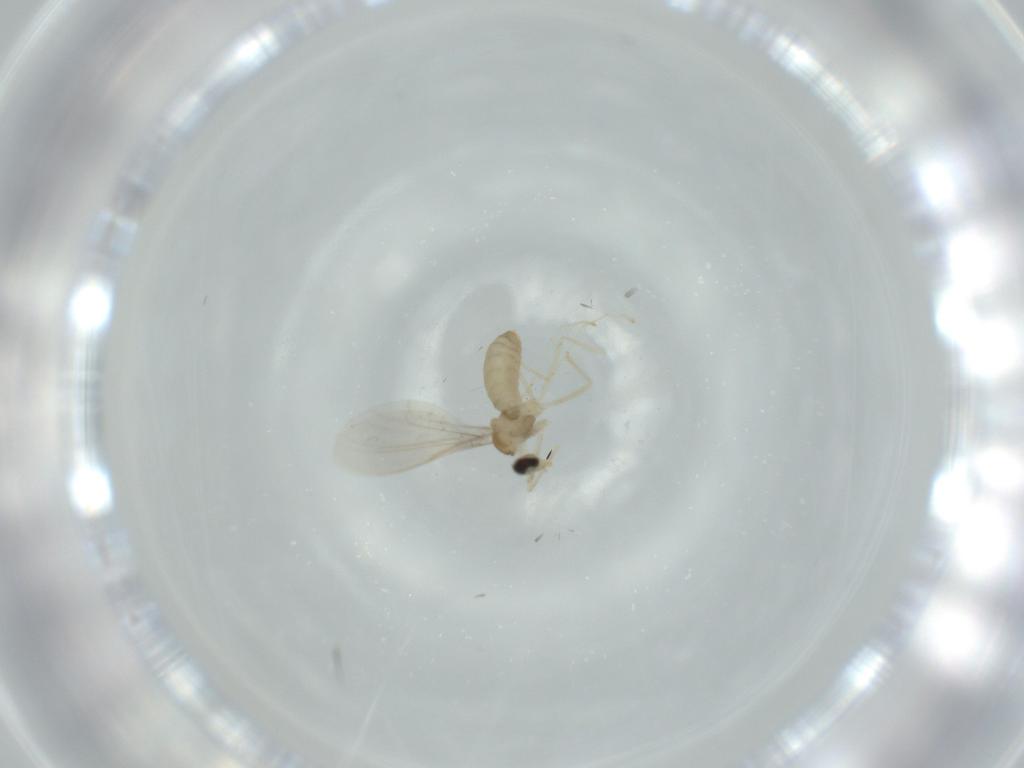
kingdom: Animalia
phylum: Arthropoda
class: Insecta
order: Diptera
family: Cecidomyiidae
